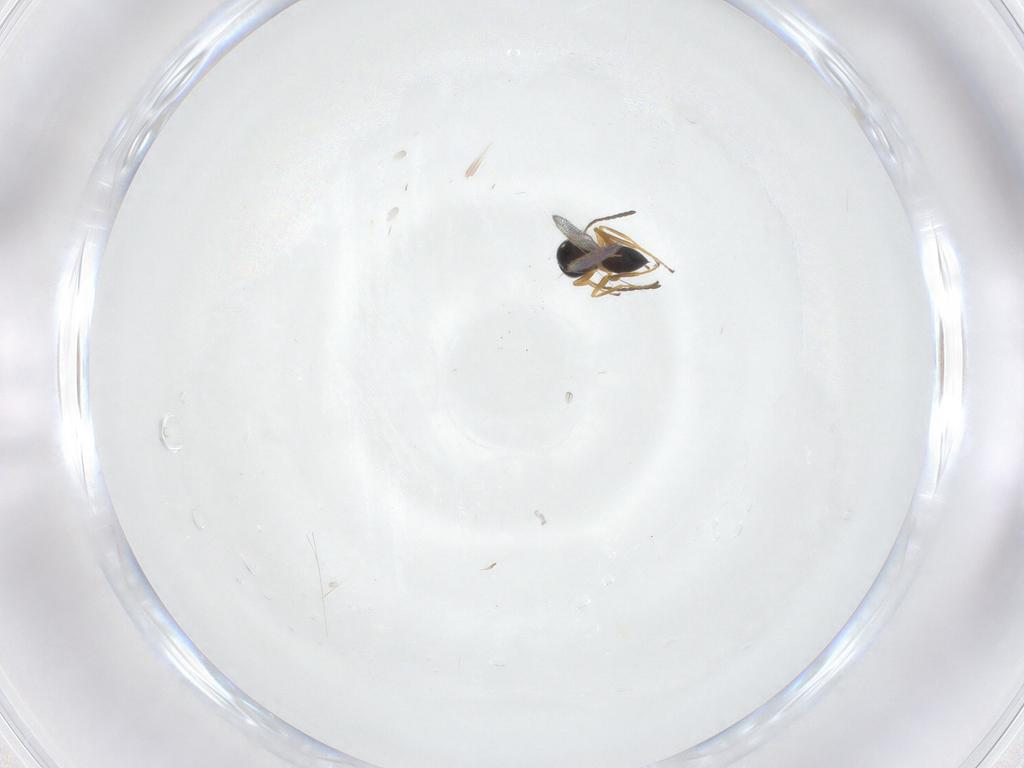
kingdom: Animalia
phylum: Arthropoda
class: Insecta
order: Hymenoptera
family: Figitidae
